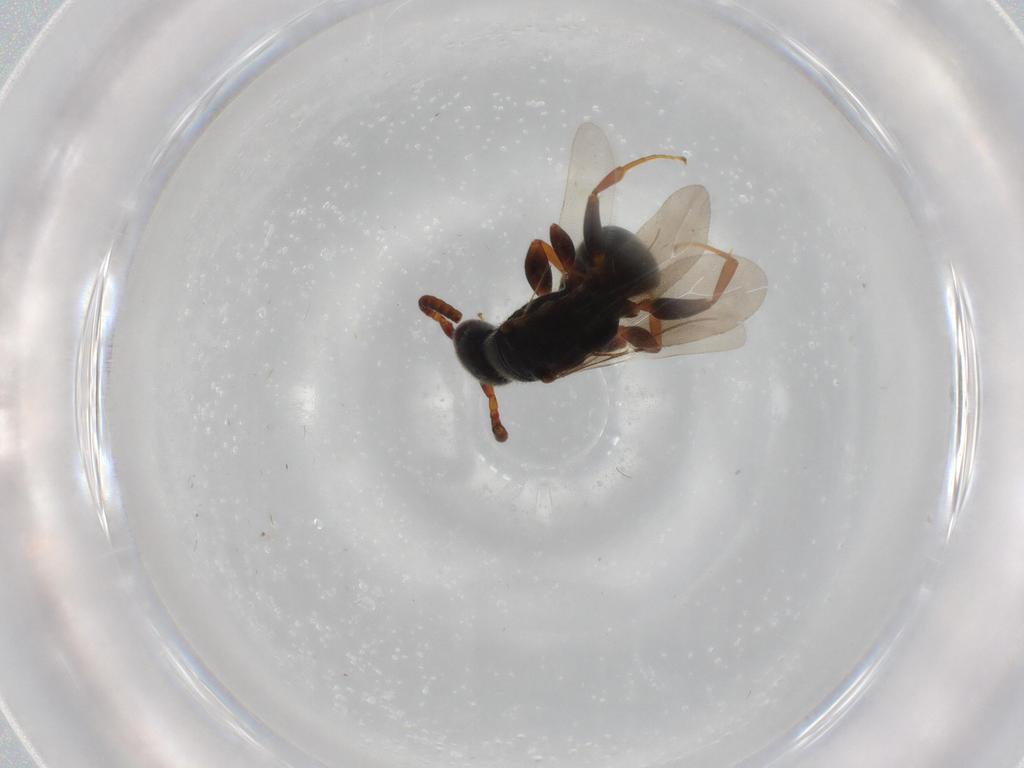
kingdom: Animalia
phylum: Arthropoda
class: Insecta
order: Hymenoptera
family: Bethylidae
